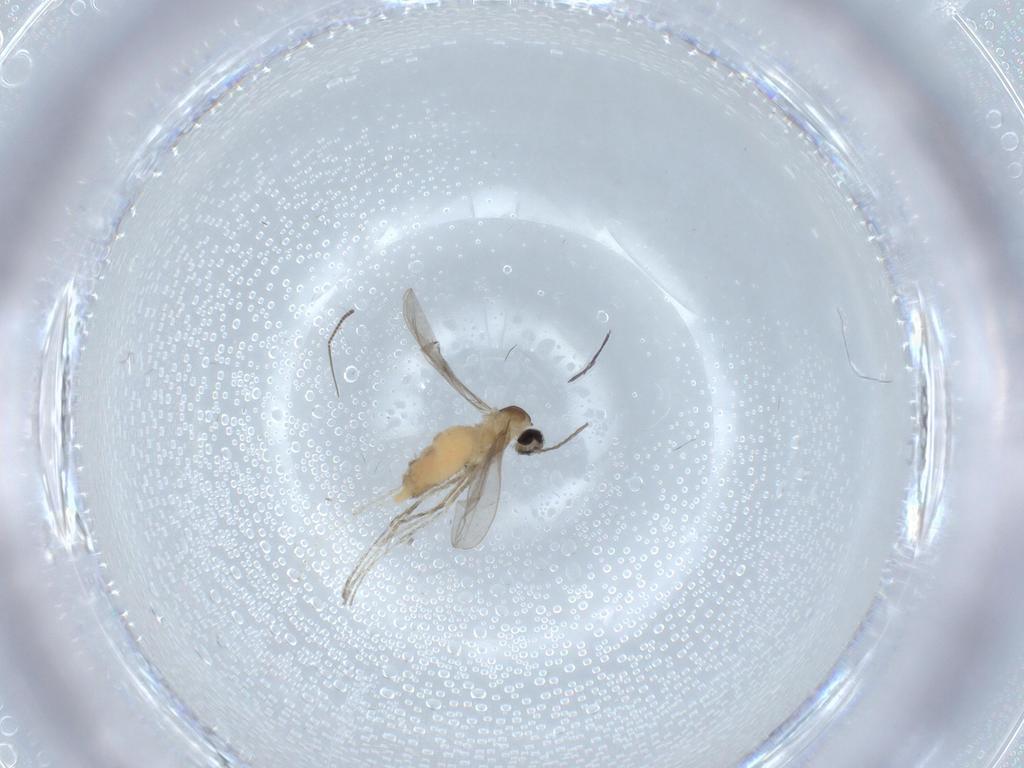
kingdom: Animalia
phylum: Arthropoda
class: Insecta
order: Diptera
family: Cecidomyiidae
